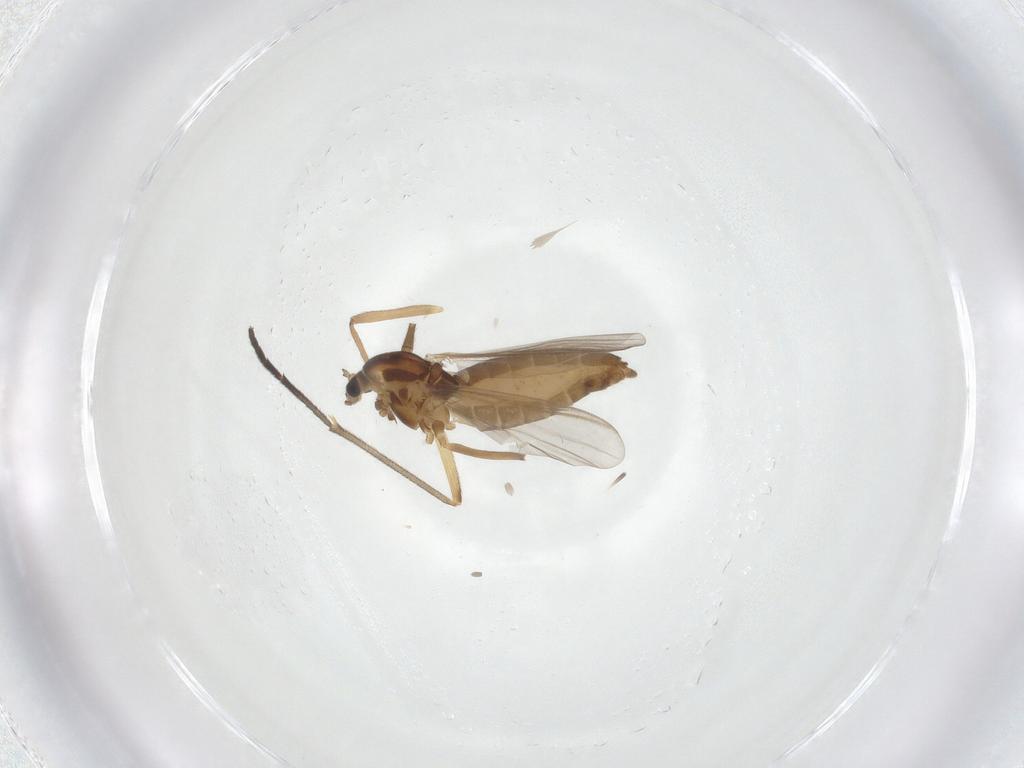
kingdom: Animalia
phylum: Arthropoda
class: Insecta
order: Diptera
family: Chironomidae
